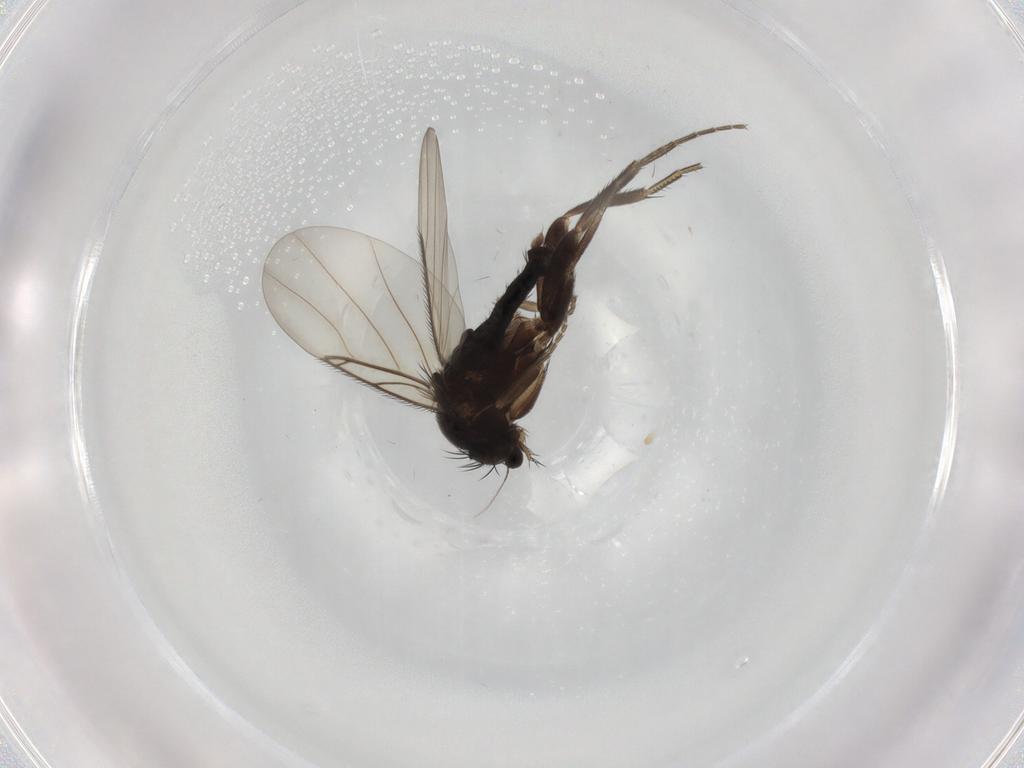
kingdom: Animalia
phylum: Arthropoda
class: Insecta
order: Diptera
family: Phoridae
